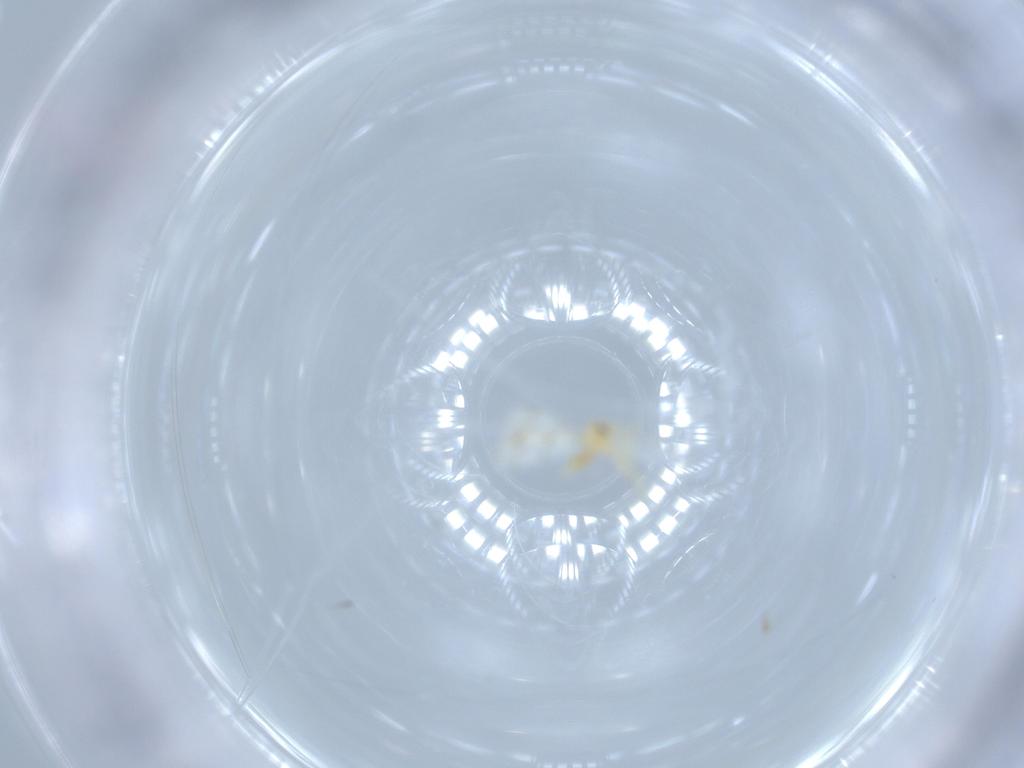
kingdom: Animalia
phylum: Arthropoda
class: Insecta
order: Hemiptera
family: Aleyrodidae
